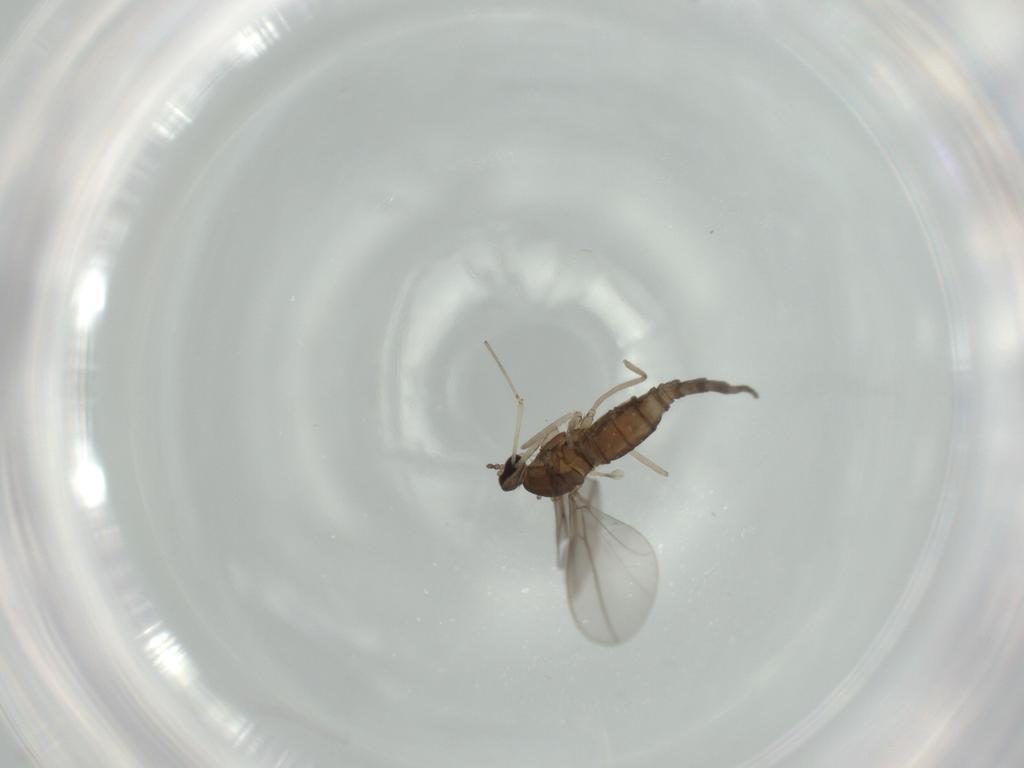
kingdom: Animalia
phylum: Arthropoda
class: Insecta
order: Diptera
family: Cecidomyiidae
